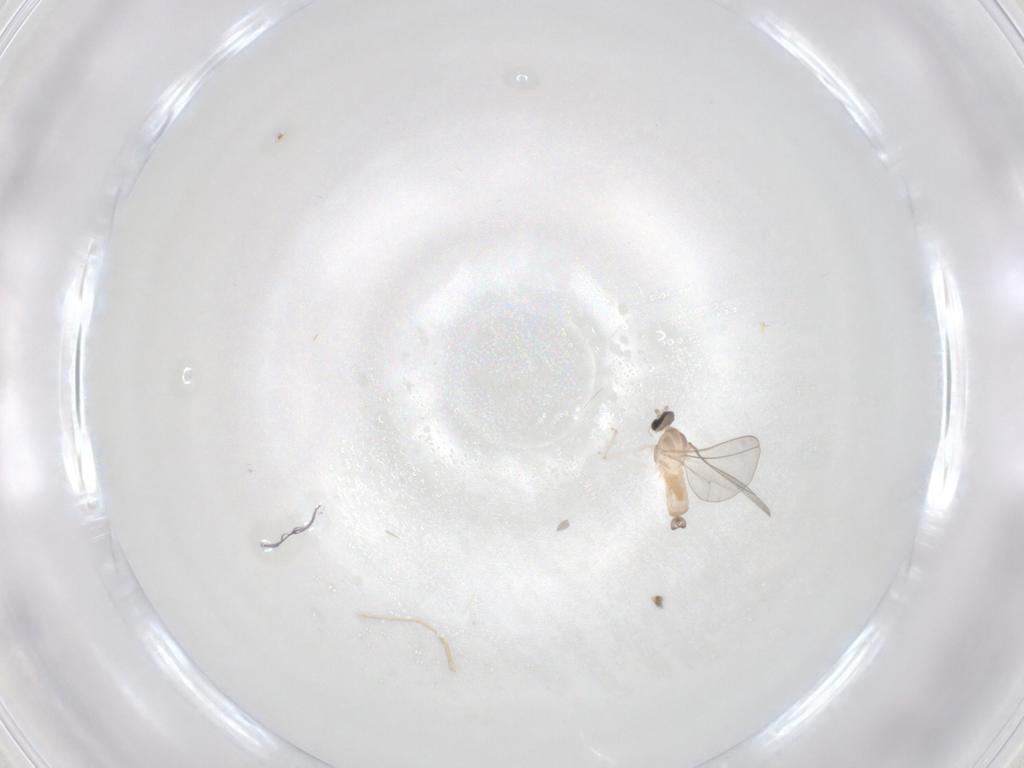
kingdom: Animalia
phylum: Arthropoda
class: Insecta
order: Diptera
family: Sciaridae
